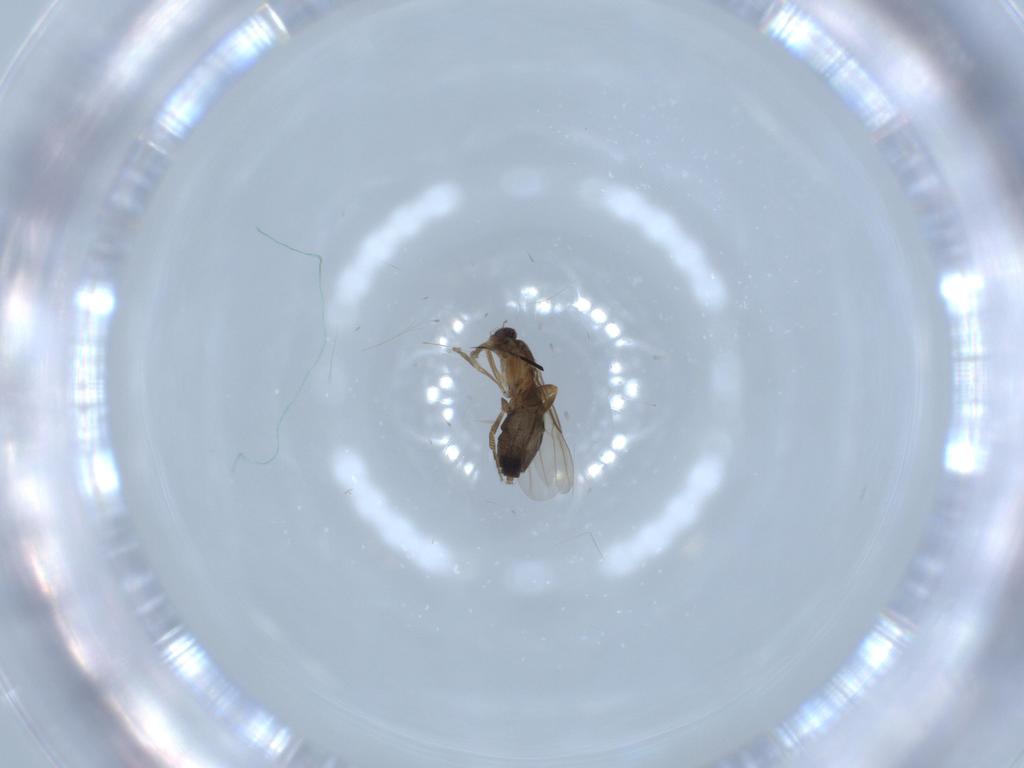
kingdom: Animalia
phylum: Arthropoda
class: Insecta
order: Diptera
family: Phoridae
